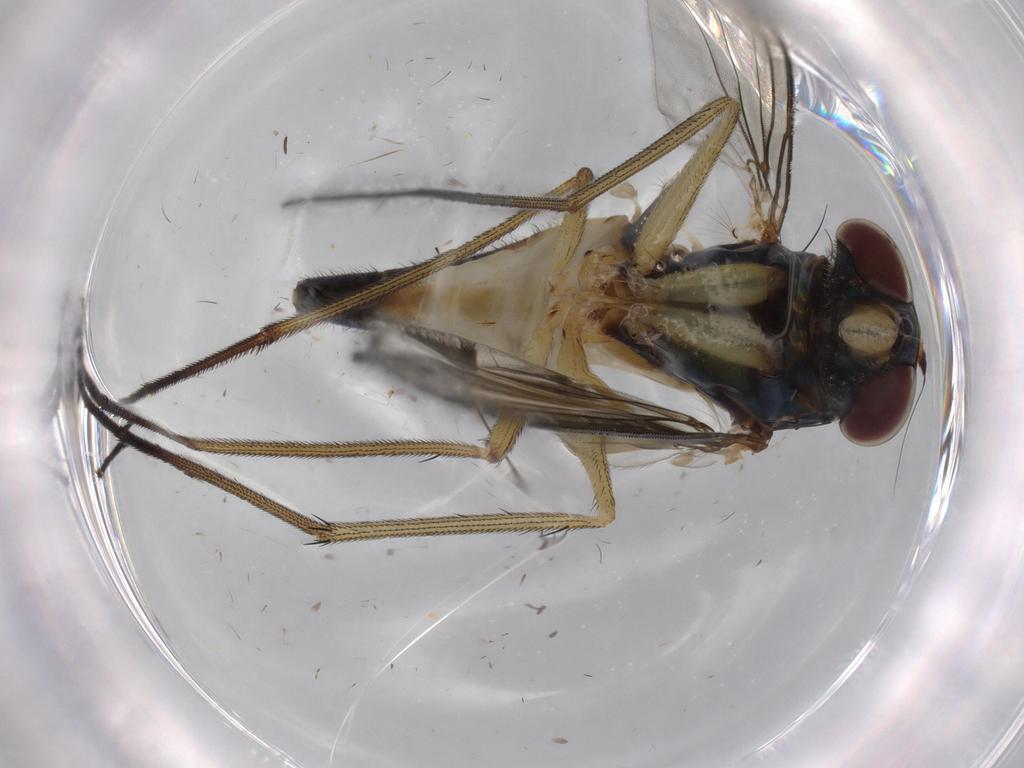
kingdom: Animalia
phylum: Arthropoda
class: Insecta
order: Diptera
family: Dolichopodidae
